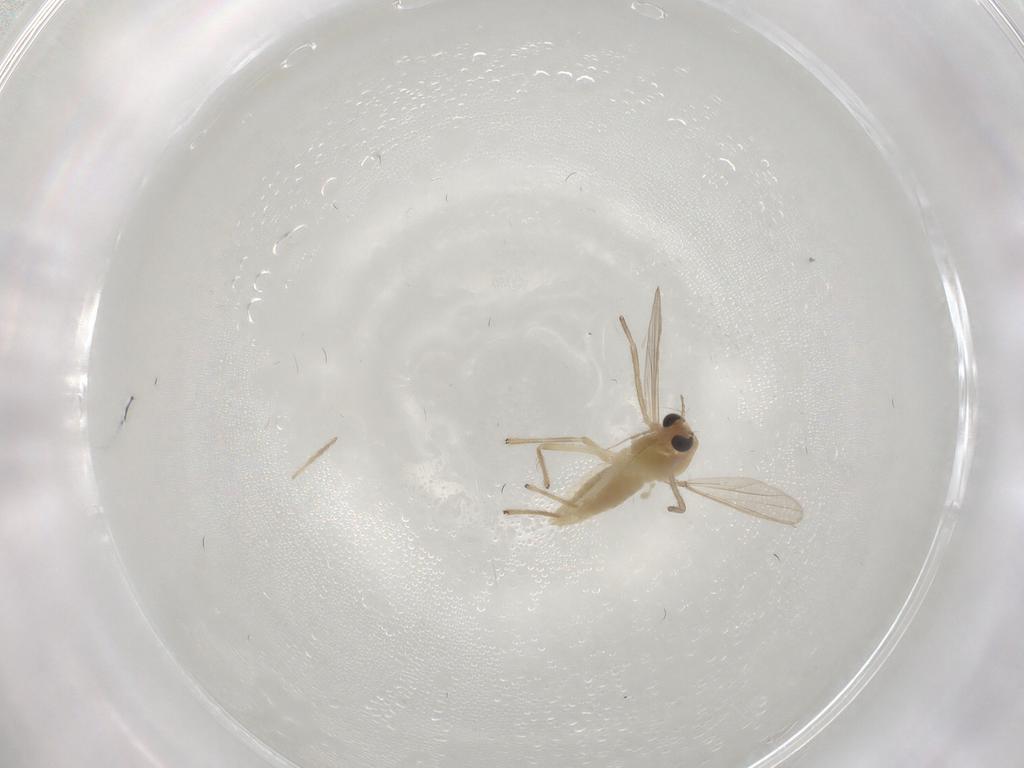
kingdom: Animalia
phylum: Arthropoda
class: Insecta
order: Diptera
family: Chironomidae
